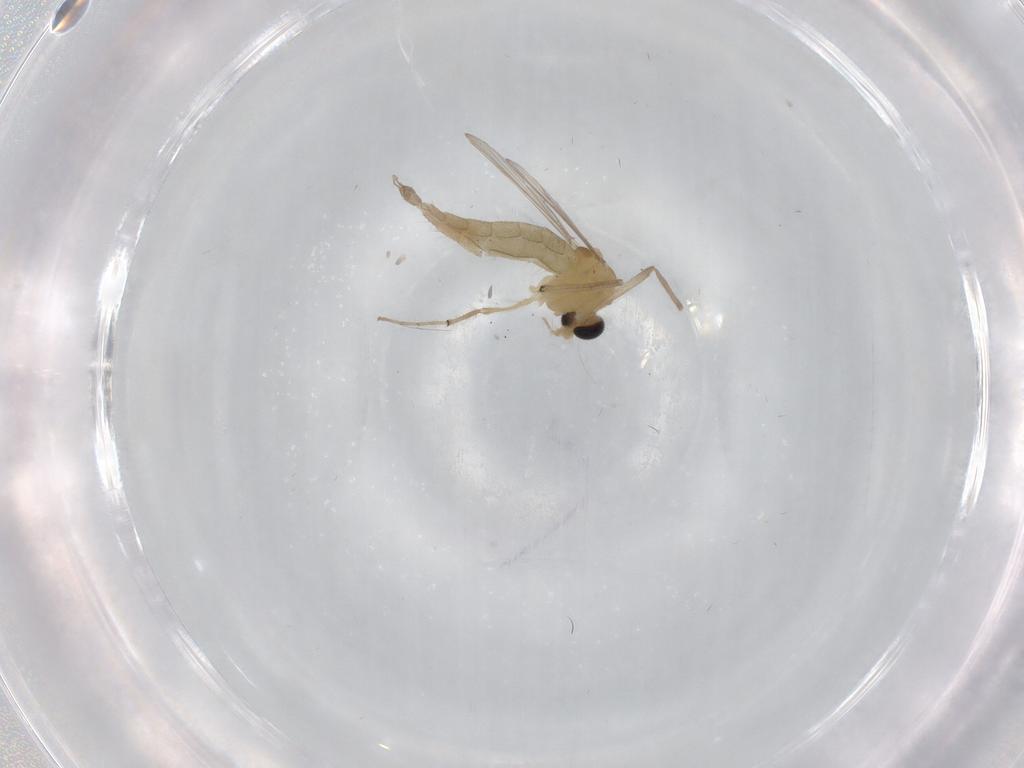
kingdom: Animalia
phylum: Arthropoda
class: Insecta
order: Diptera
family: Chironomidae
